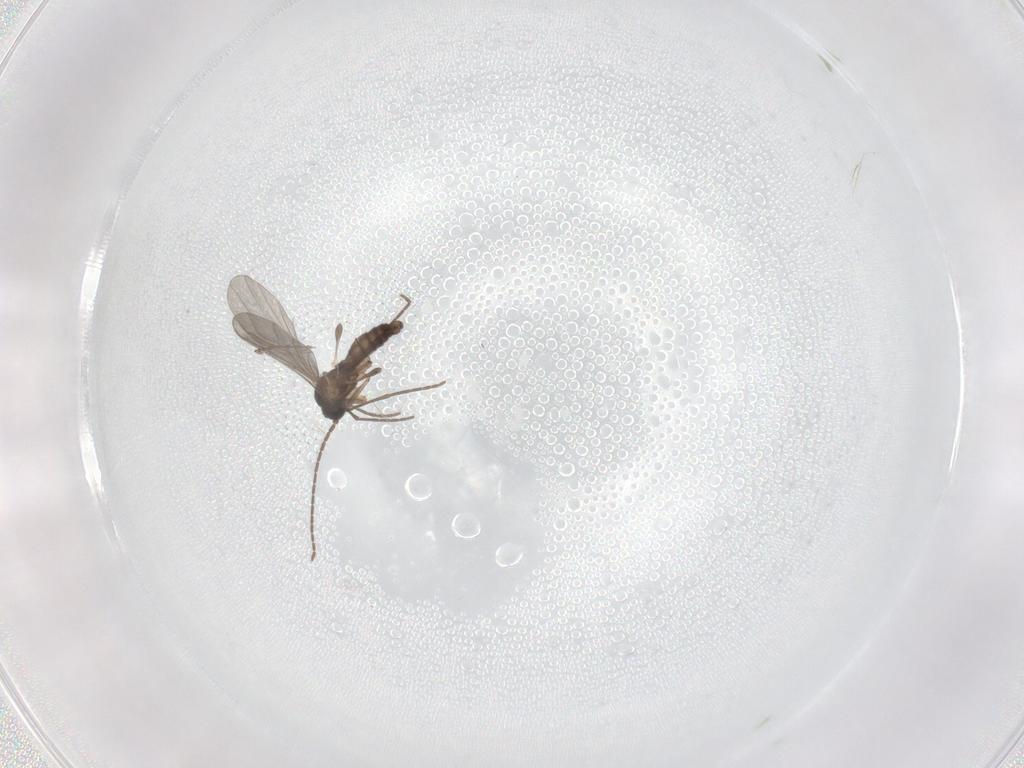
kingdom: Animalia
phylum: Arthropoda
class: Insecta
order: Diptera
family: Sciaridae
